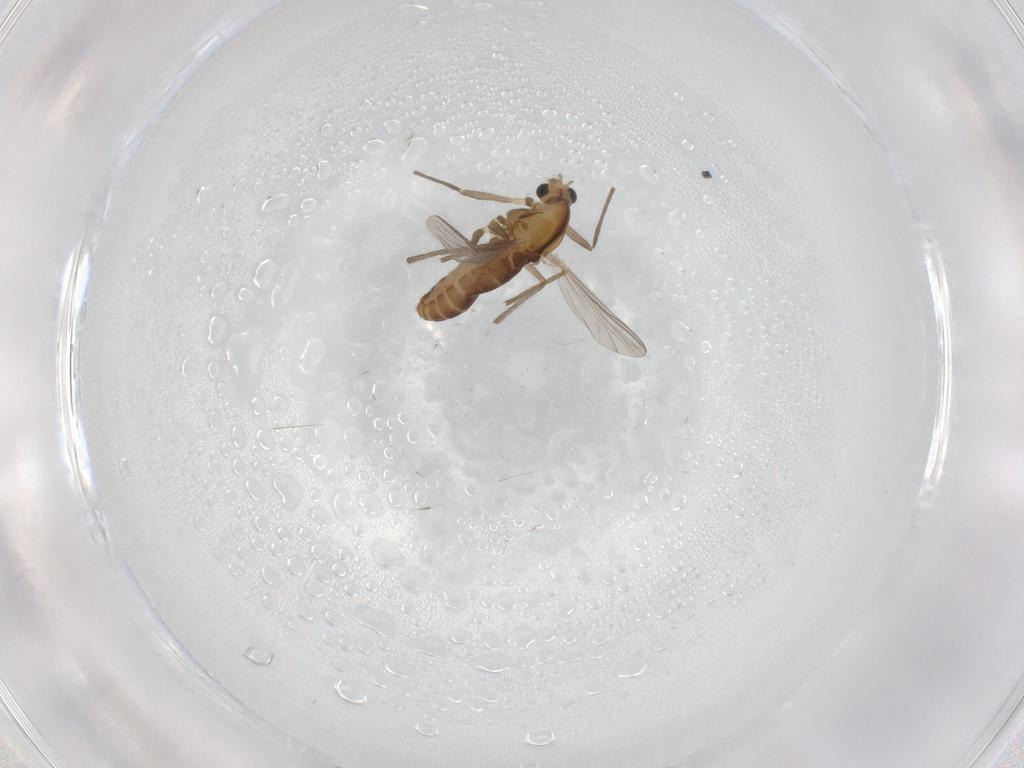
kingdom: Animalia
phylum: Arthropoda
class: Insecta
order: Diptera
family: Chironomidae
